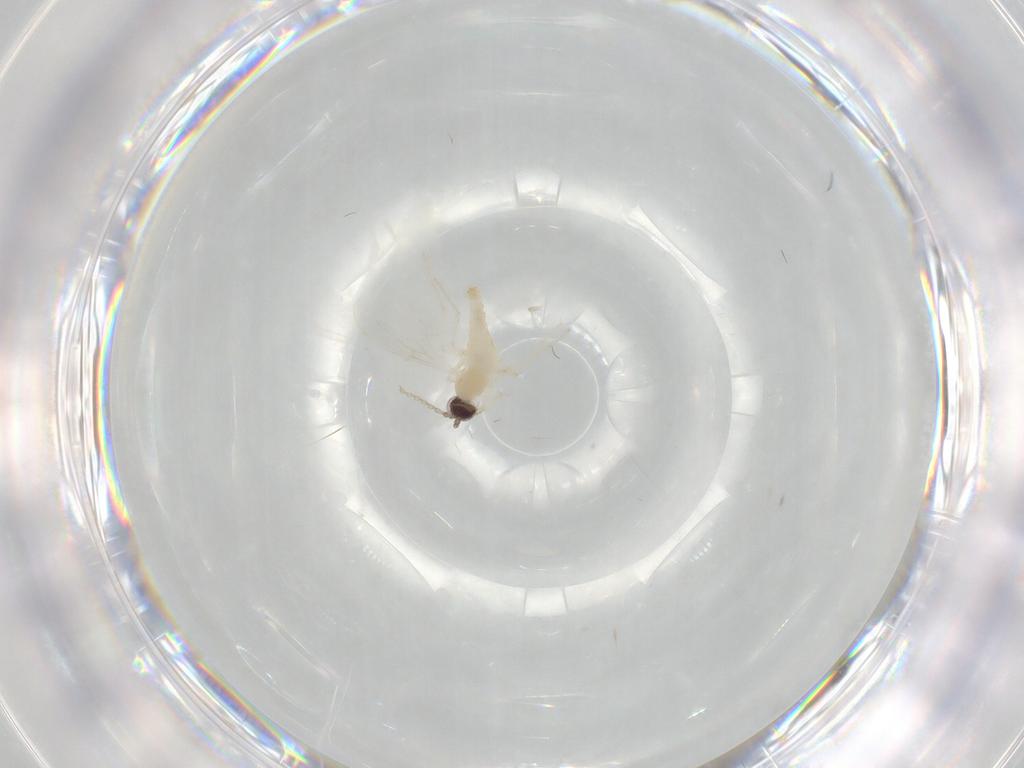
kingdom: Animalia
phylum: Arthropoda
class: Insecta
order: Diptera
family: Cecidomyiidae
